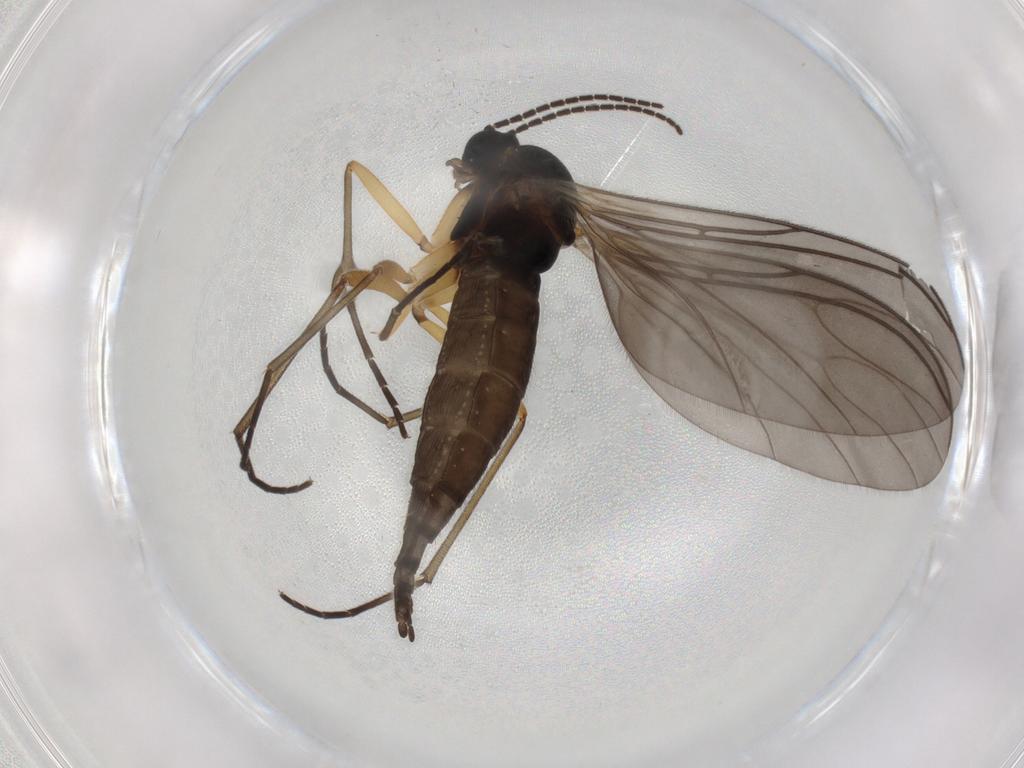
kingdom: Animalia
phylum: Arthropoda
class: Insecta
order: Diptera
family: Sciaridae
